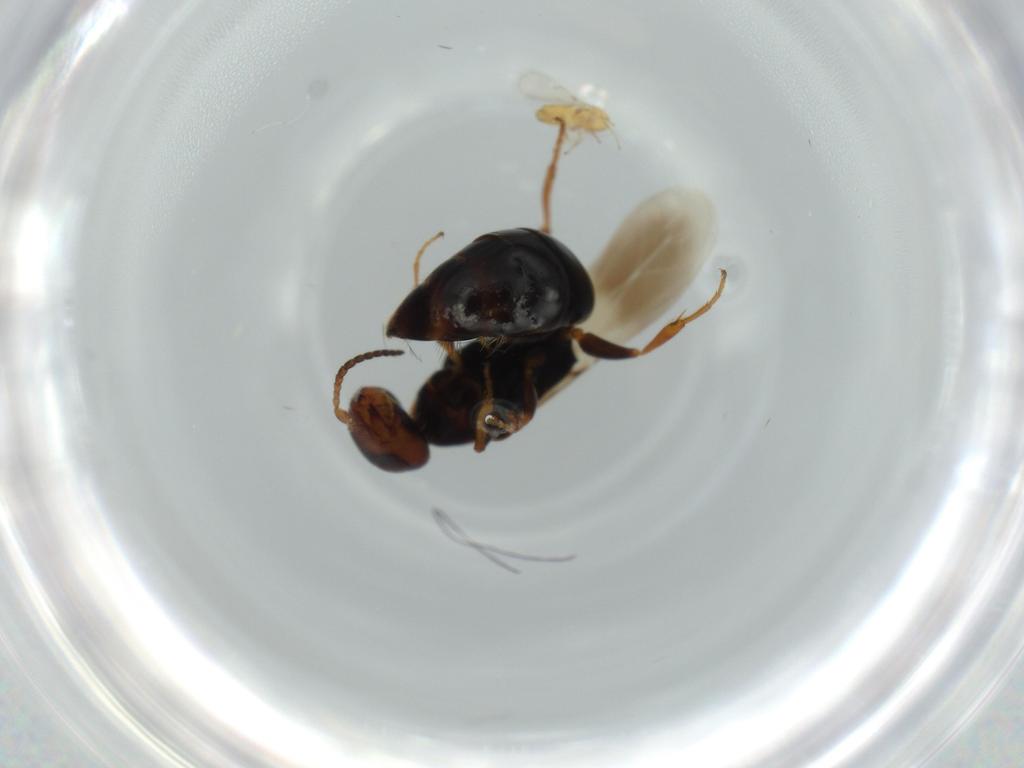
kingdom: Animalia
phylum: Arthropoda
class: Insecta
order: Hymenoptera
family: Bethylidae
